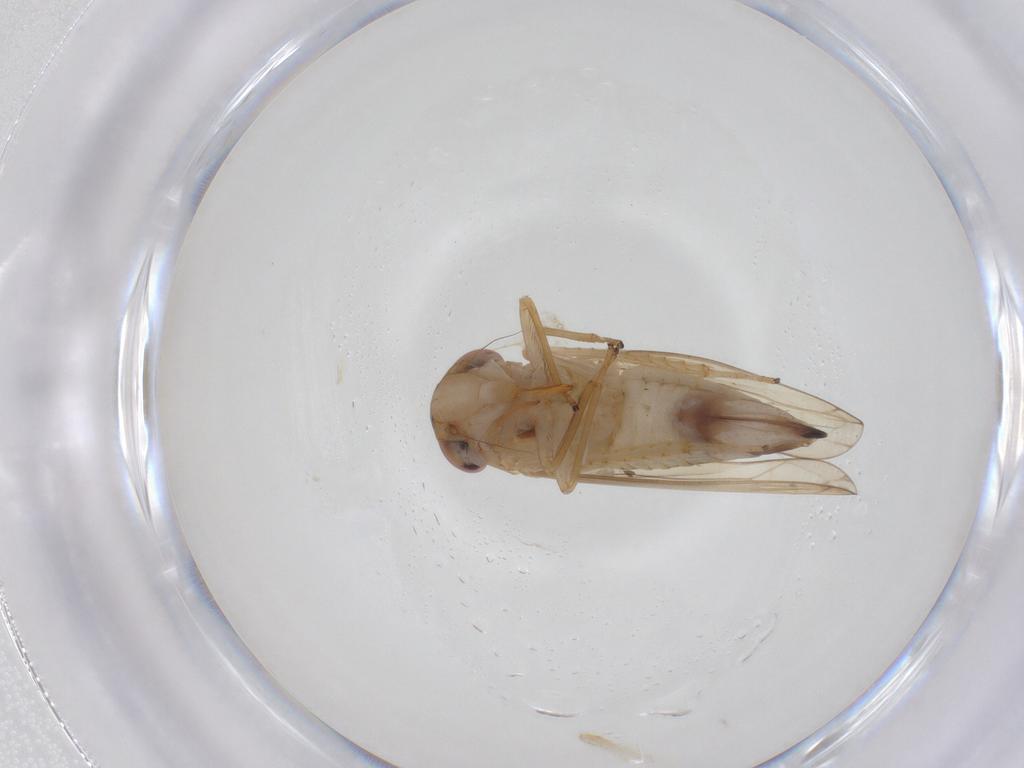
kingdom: Animalia
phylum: Arthropoda
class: Insecta
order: Hemiptera
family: Cicadellidae
